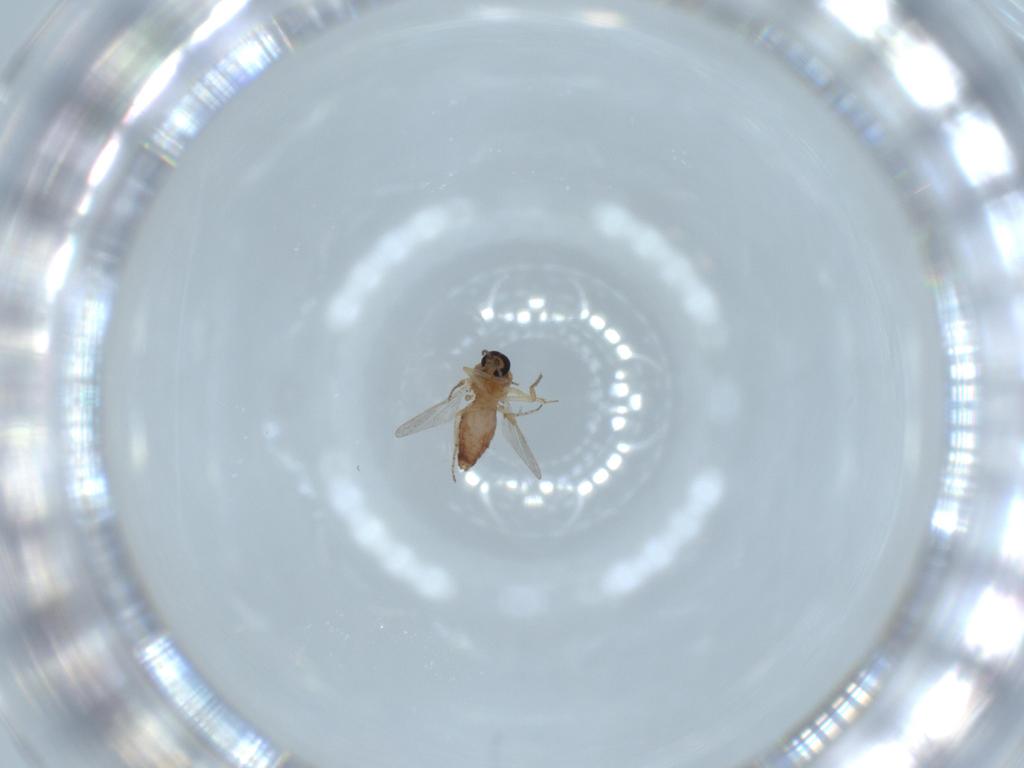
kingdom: Animalia
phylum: Arthropoda
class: Insecta
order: Diptera
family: Ceratopogonidae
